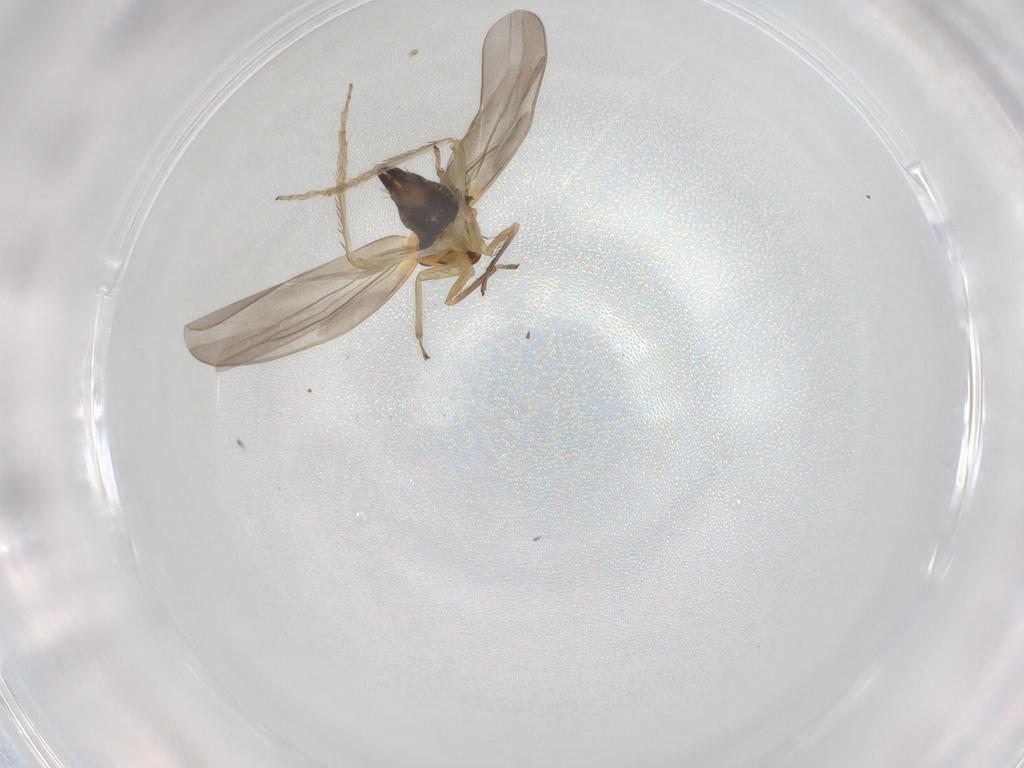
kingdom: Animalia
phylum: Arthropoda
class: Insecta
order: Hemiptera
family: Cicadellidae
